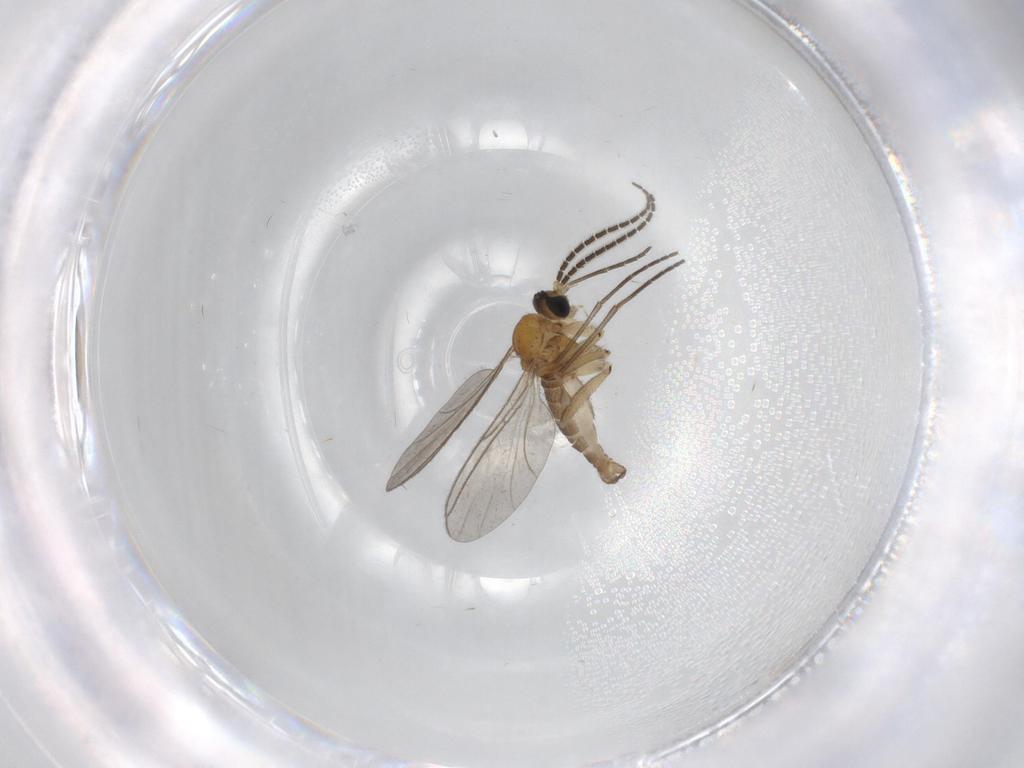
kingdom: Animalia
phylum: Arthropoda
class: Insecta
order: Diptera
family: Sciaridae
